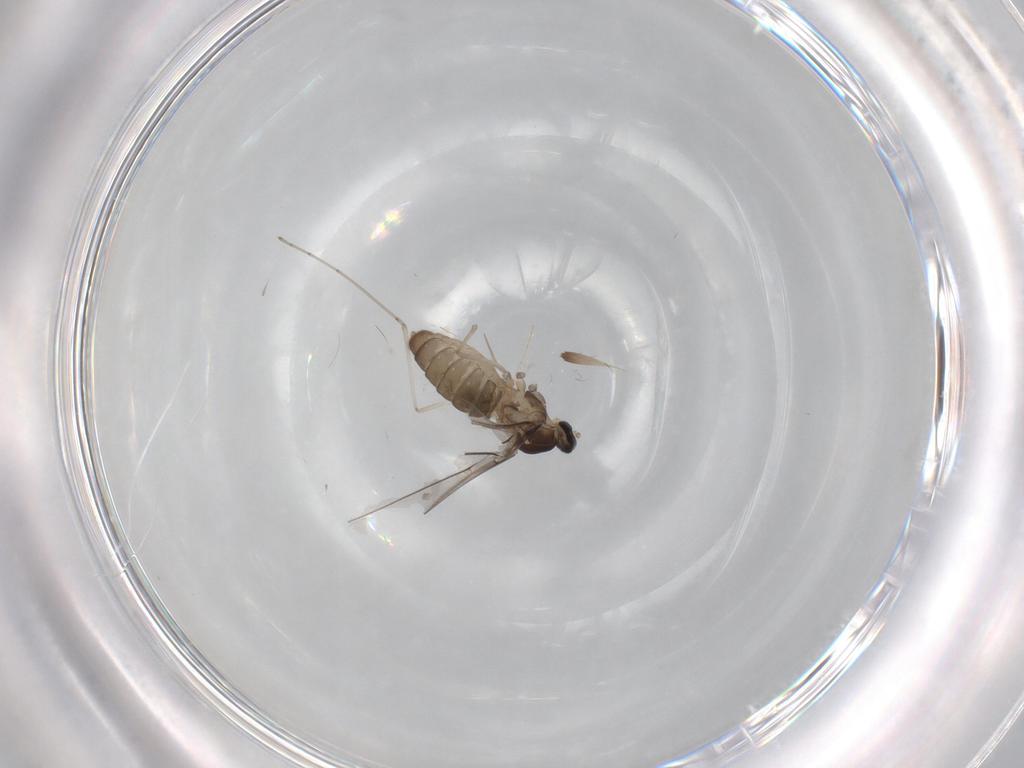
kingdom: Animalia
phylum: Arthropoda
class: Insecta
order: Diptera
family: Cecidomyiidae
